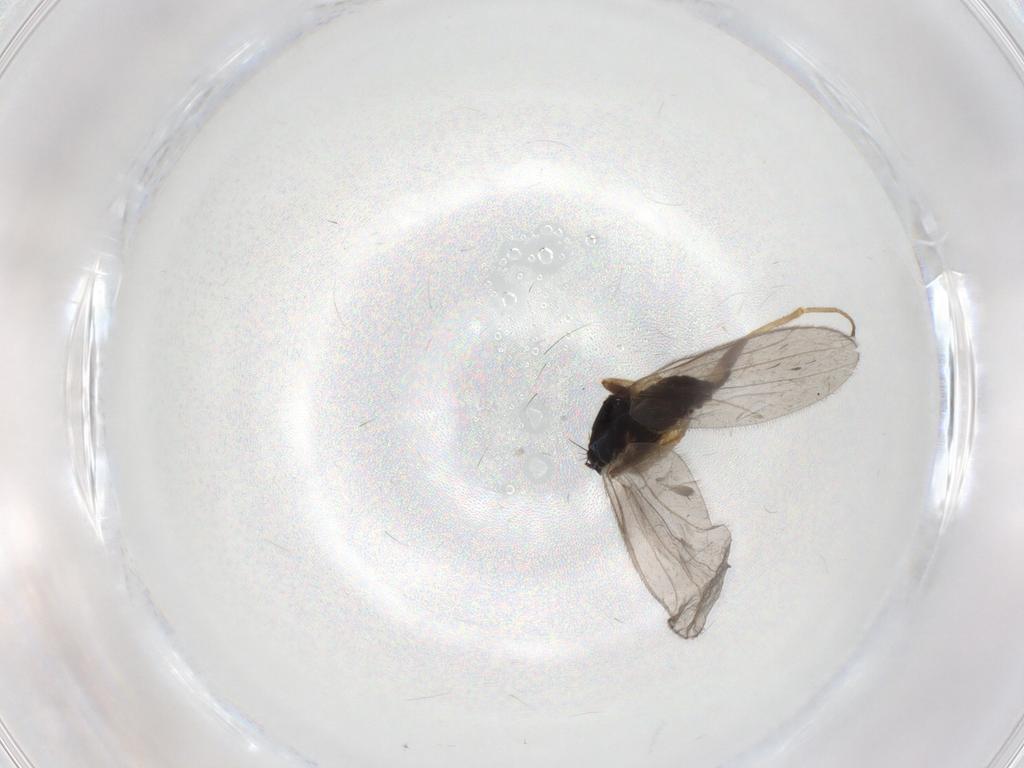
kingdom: Animalia
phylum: Arthropoda
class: Insecta
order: Diptera
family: Hybotidae
